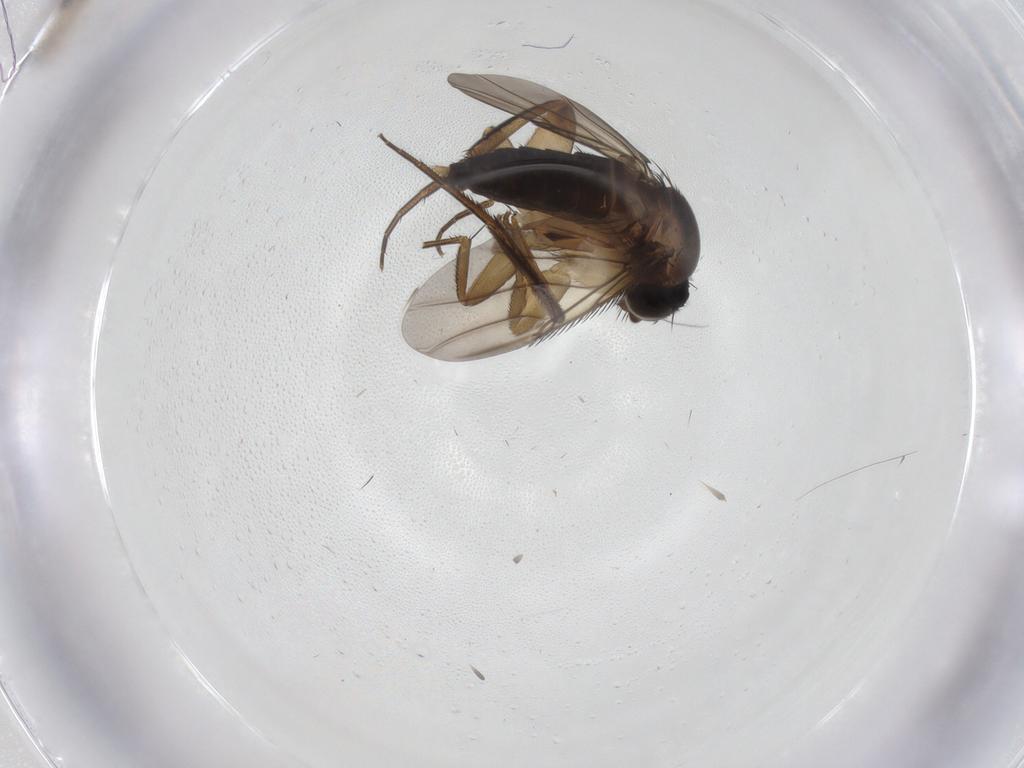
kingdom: Animalia
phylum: Arthropoda
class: Insecta
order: Diptera
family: Phoridae
